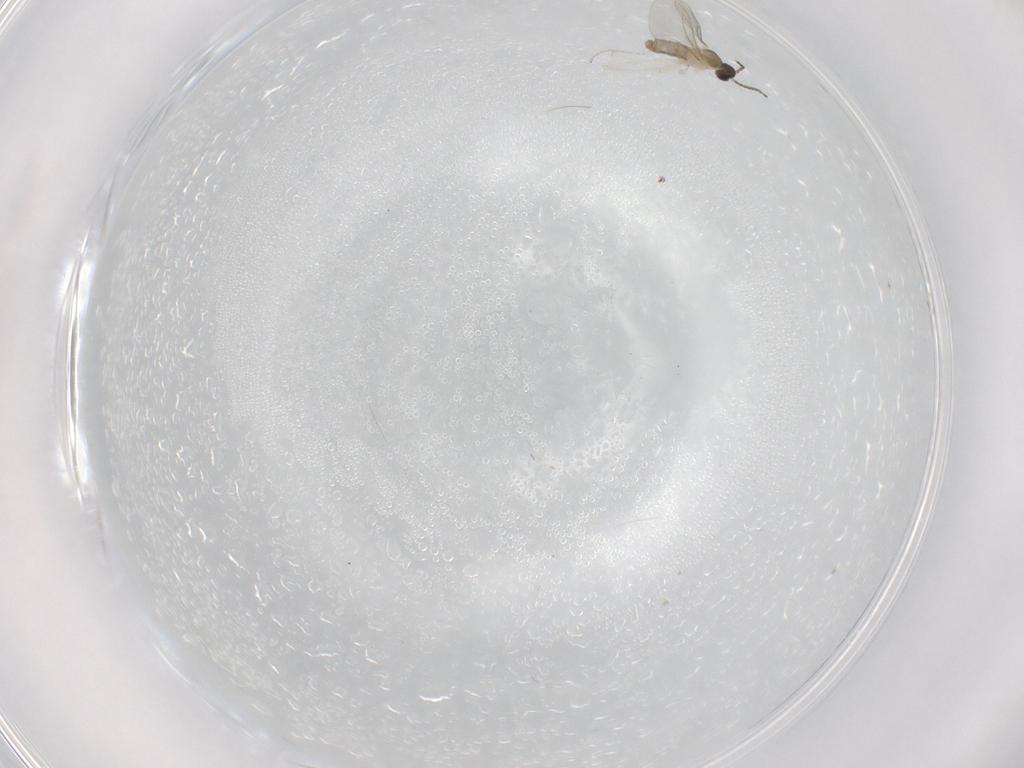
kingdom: Animalia
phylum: Arthropoda
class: Insecta
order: Diptera
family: Cecidomyiidae
